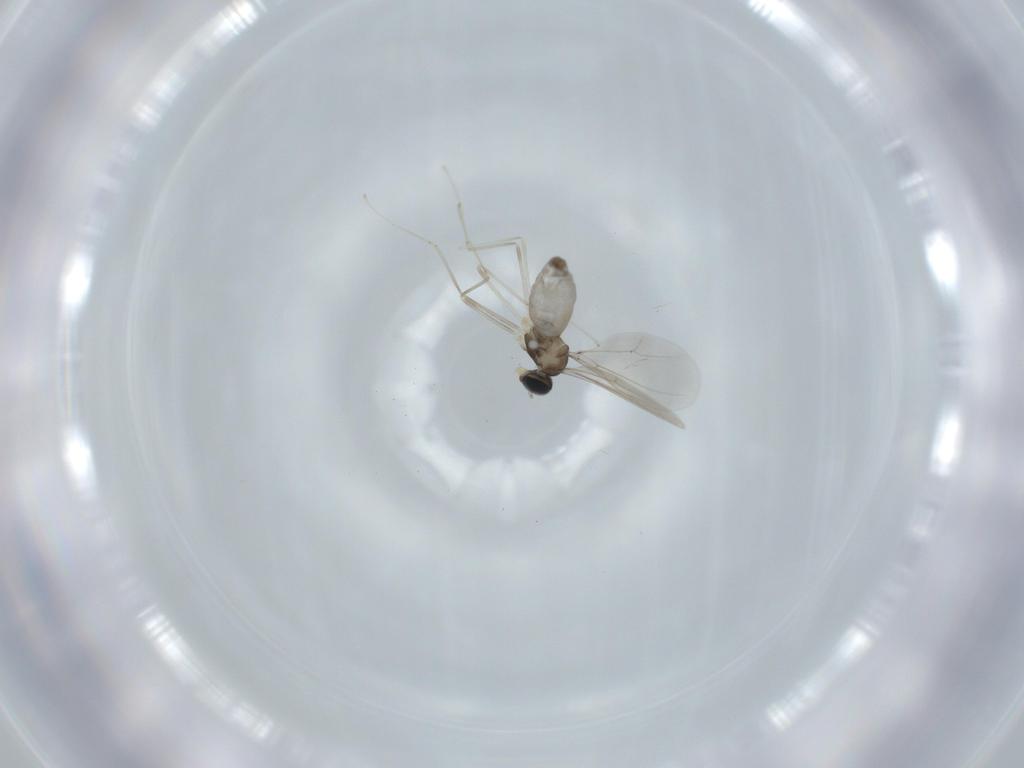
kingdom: Animalia
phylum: Arthropoda
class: Insecta
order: Diptera
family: Cecidomyiidae
